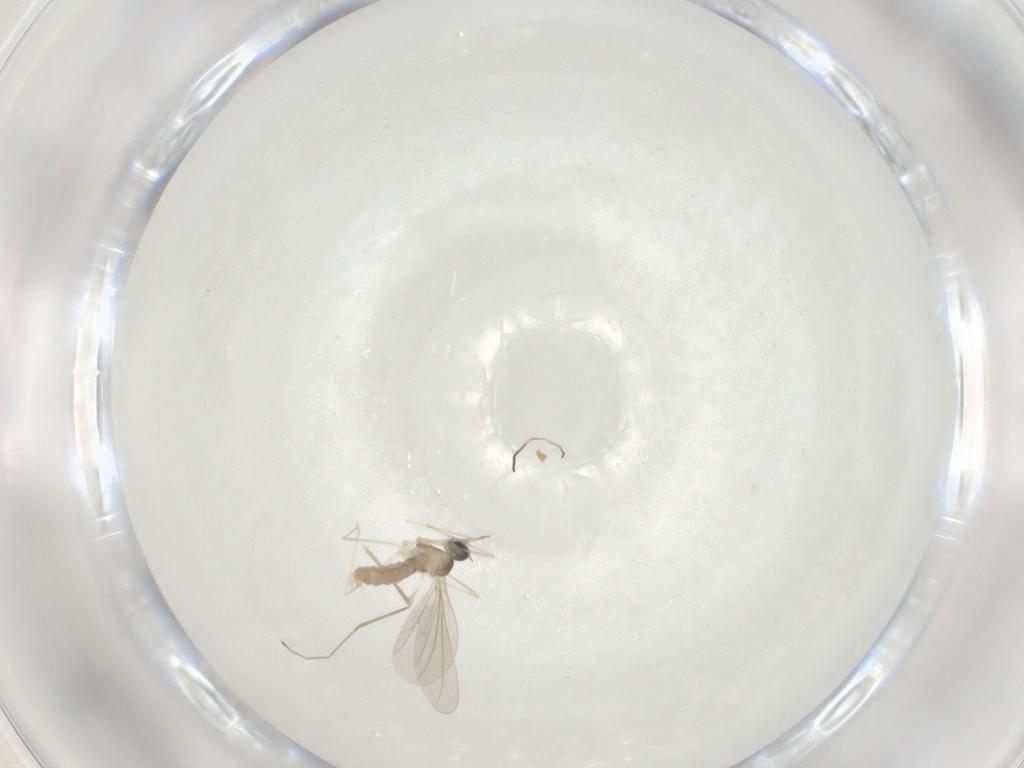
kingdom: Animalia
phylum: Arthropoda
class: Insecta
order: Diptera
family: Cecidomyiidae
